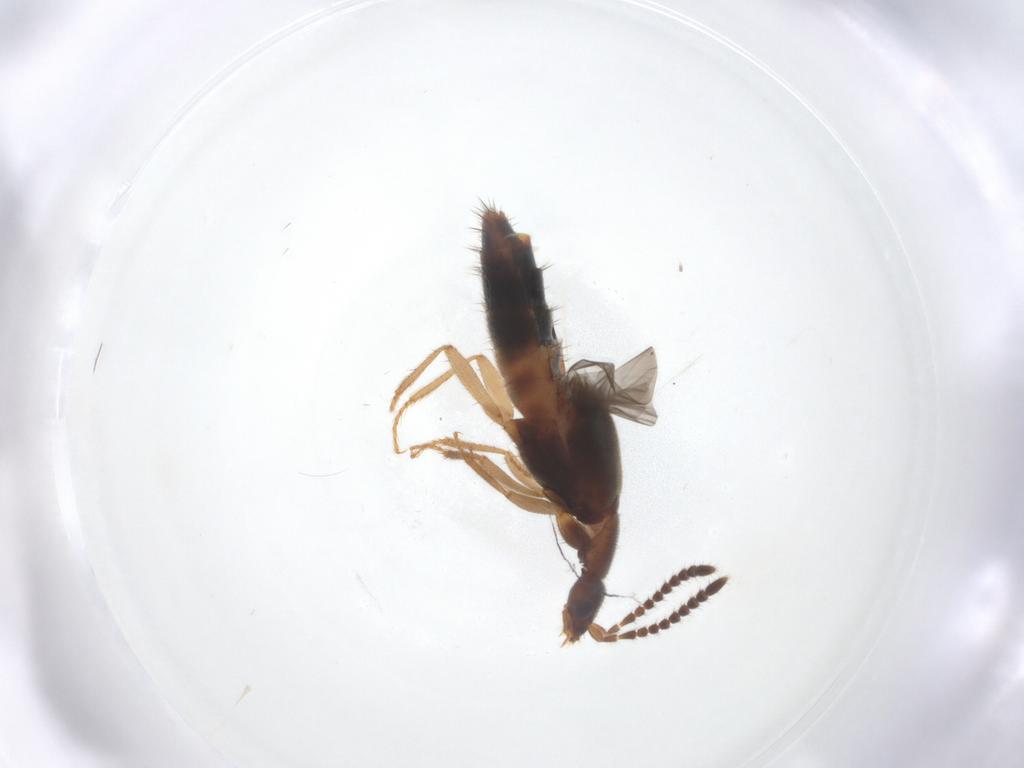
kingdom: Animalia
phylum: Arthropoda
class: Insecta
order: Coleoptera
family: Staphylinidae
